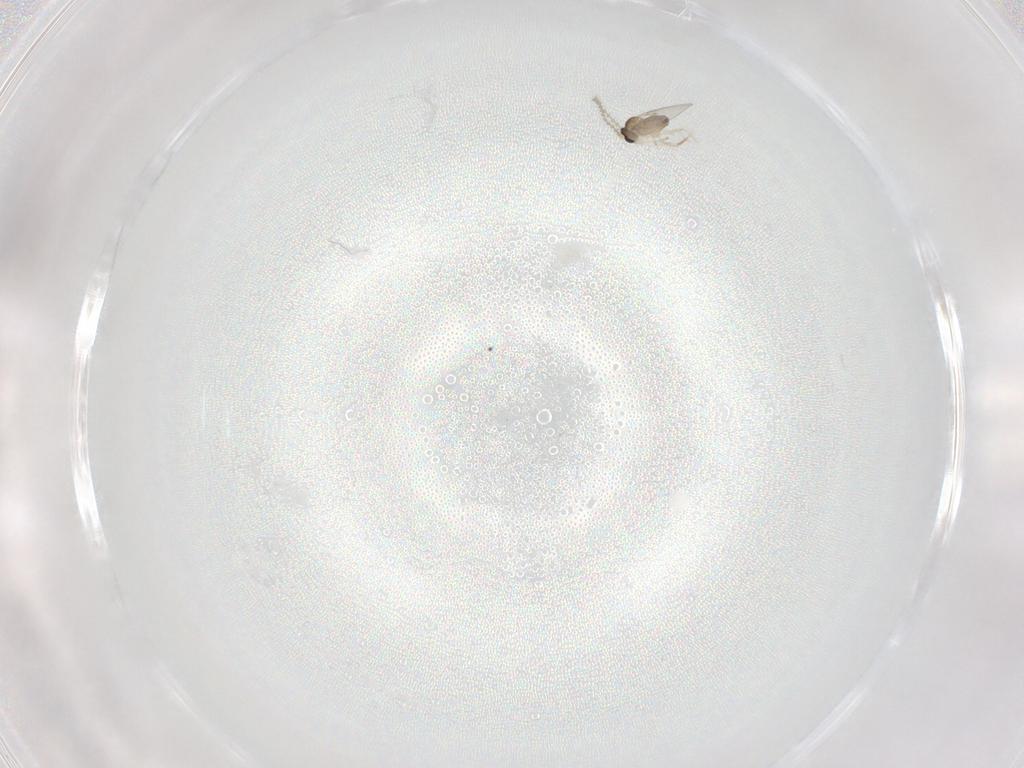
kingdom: Animalia
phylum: Arthropoda
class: Insecta
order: Diptera
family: Cecidomyiidae
